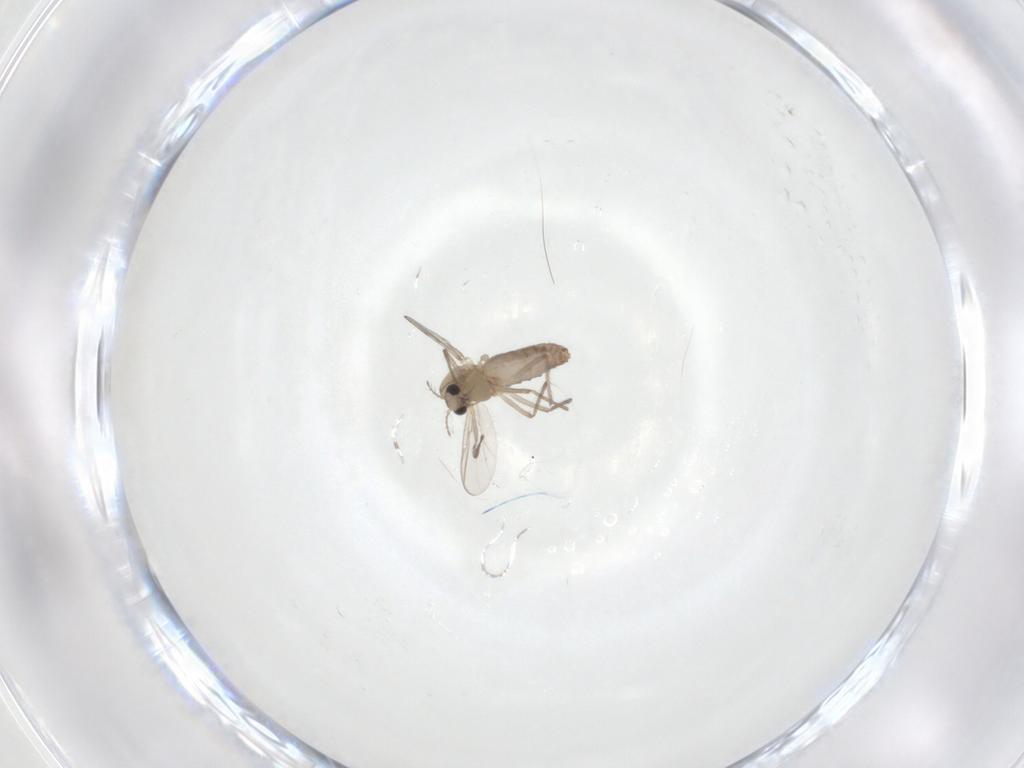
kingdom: Animalia
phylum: Arthropoda
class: Insecta
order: Diptera
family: Chironomidae
